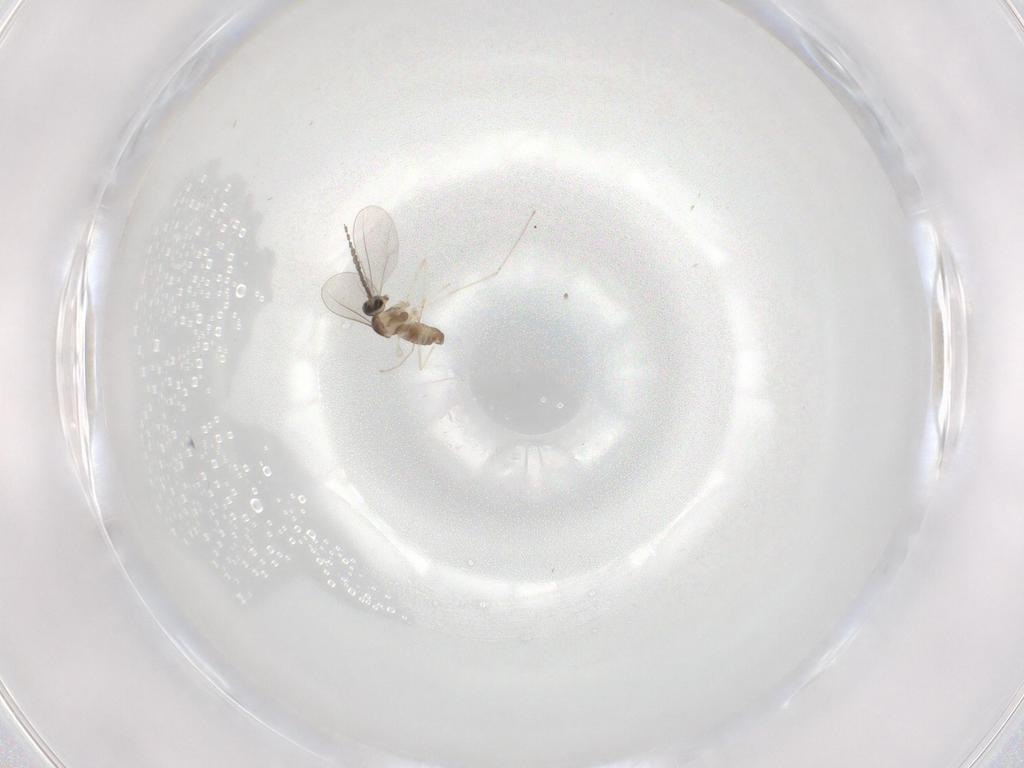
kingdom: Animalia
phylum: Arthropoda
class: Insecta
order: Diptera
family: Cecidomyiidae
